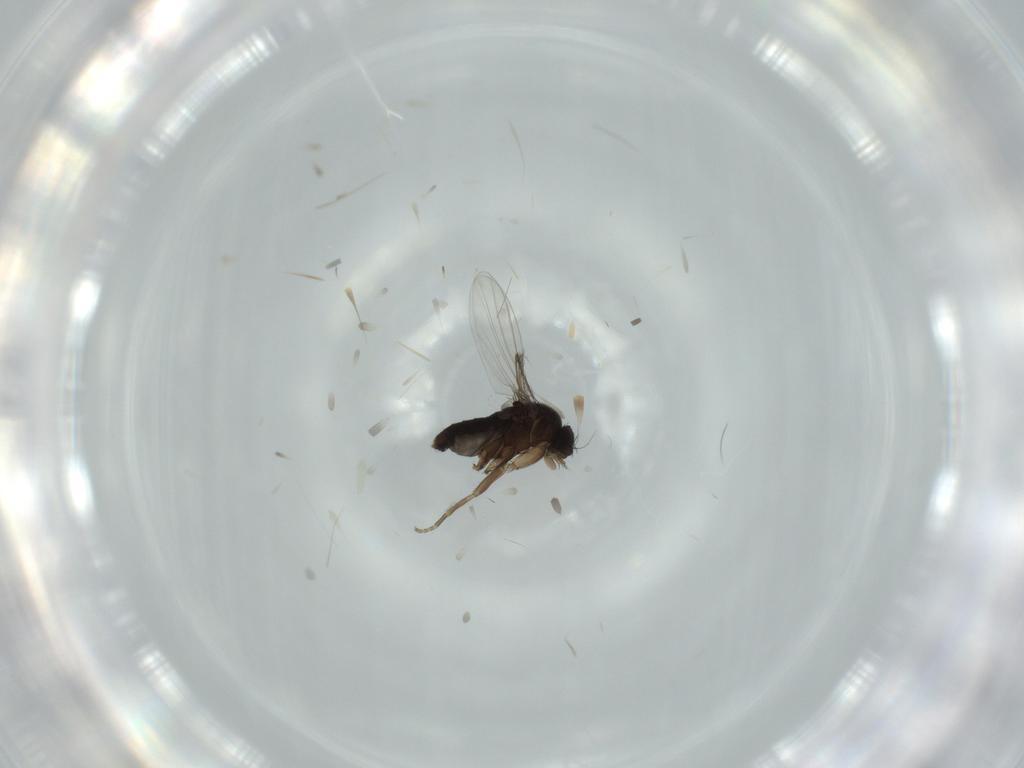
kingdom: Animalia
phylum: Arthropoda
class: Insecta
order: Diptera
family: Phoridae
